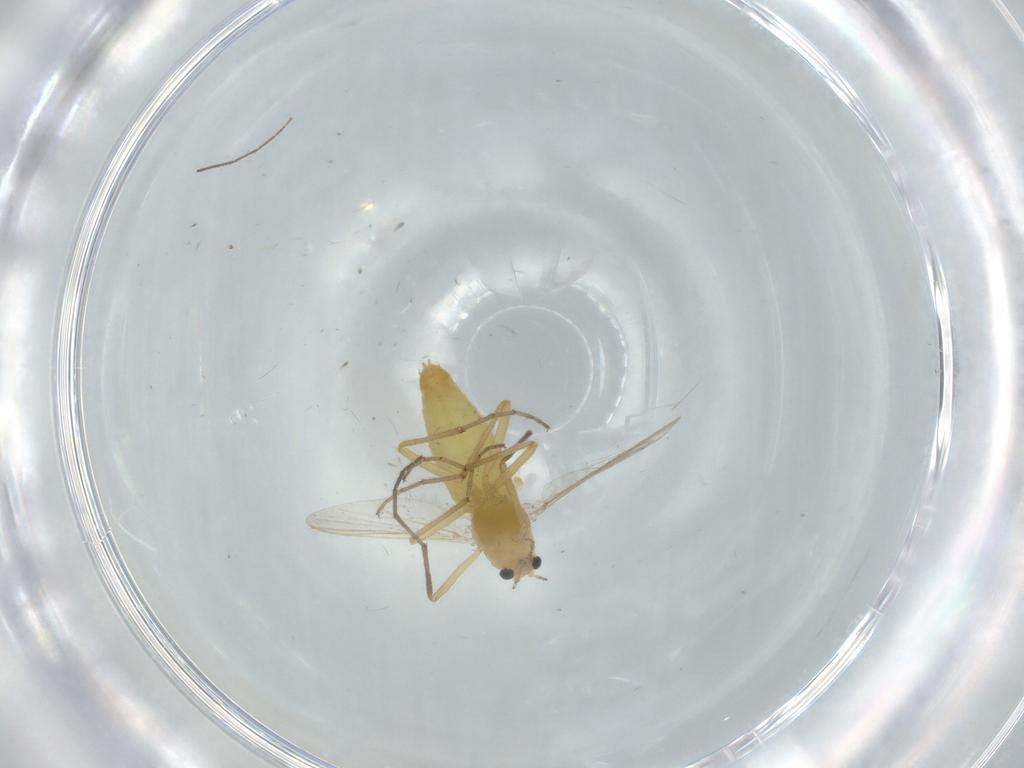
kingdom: Animalia
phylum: Arthropoda
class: Insecta
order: Diptera
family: Chironomidae
